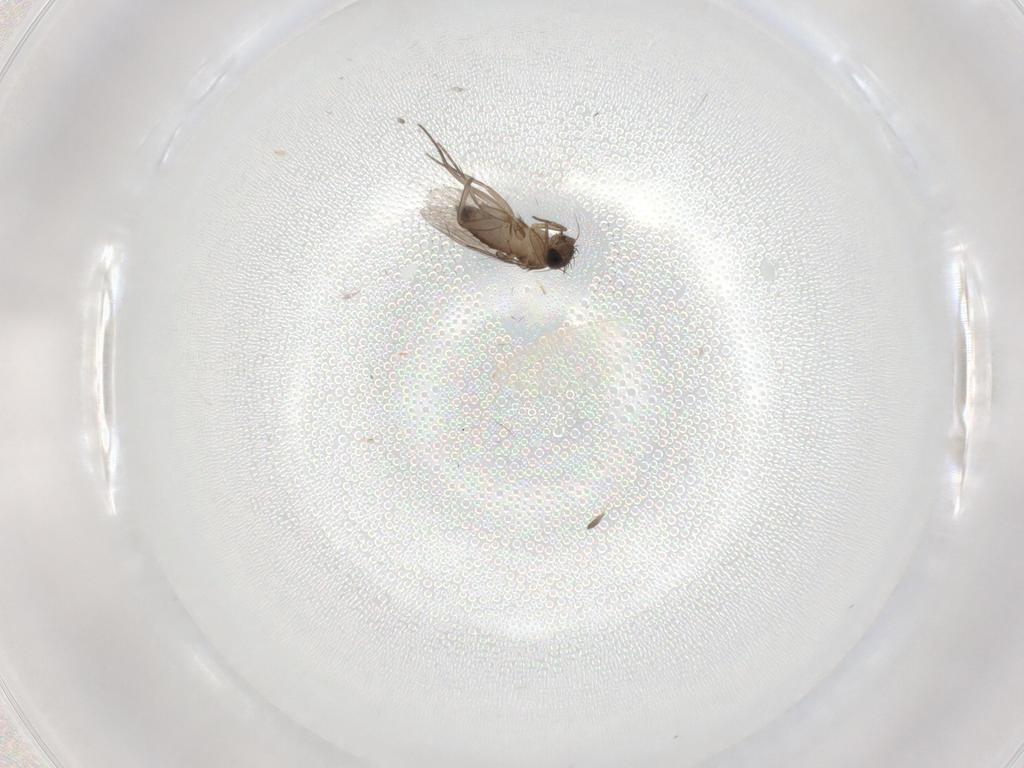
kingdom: Animalia
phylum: Arthropoda
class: Insecta
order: Diptera
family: Phoridae
